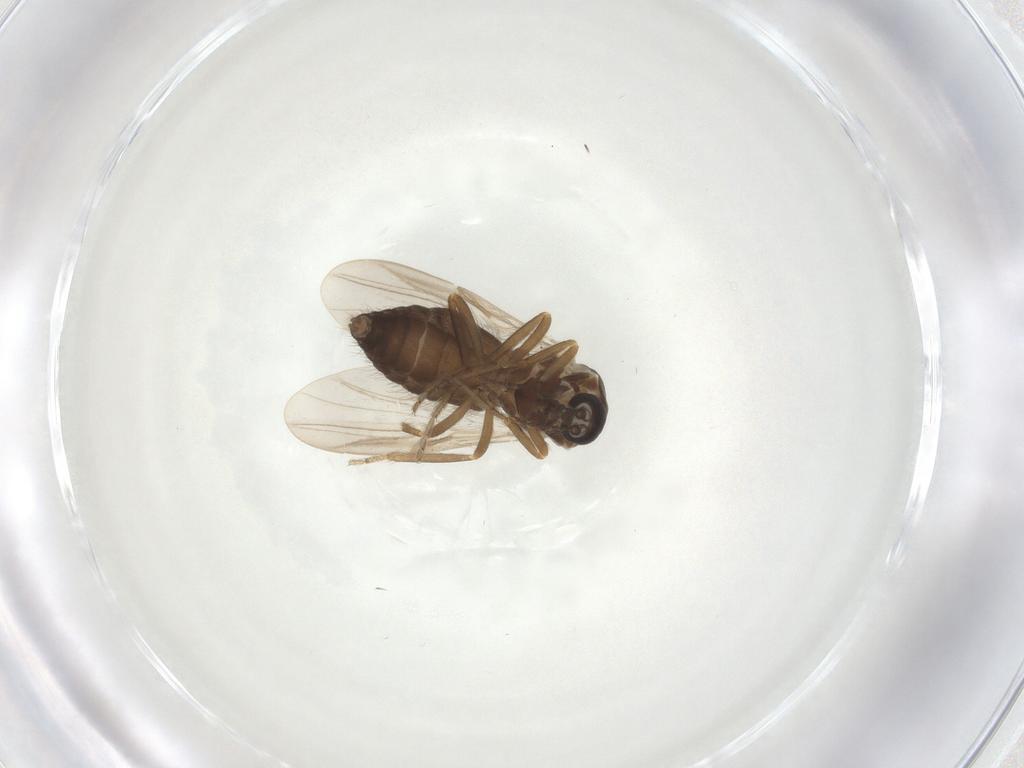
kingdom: Animalia
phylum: Arthropoda
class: Insecta
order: Diptera
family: Ceratopogonidae
